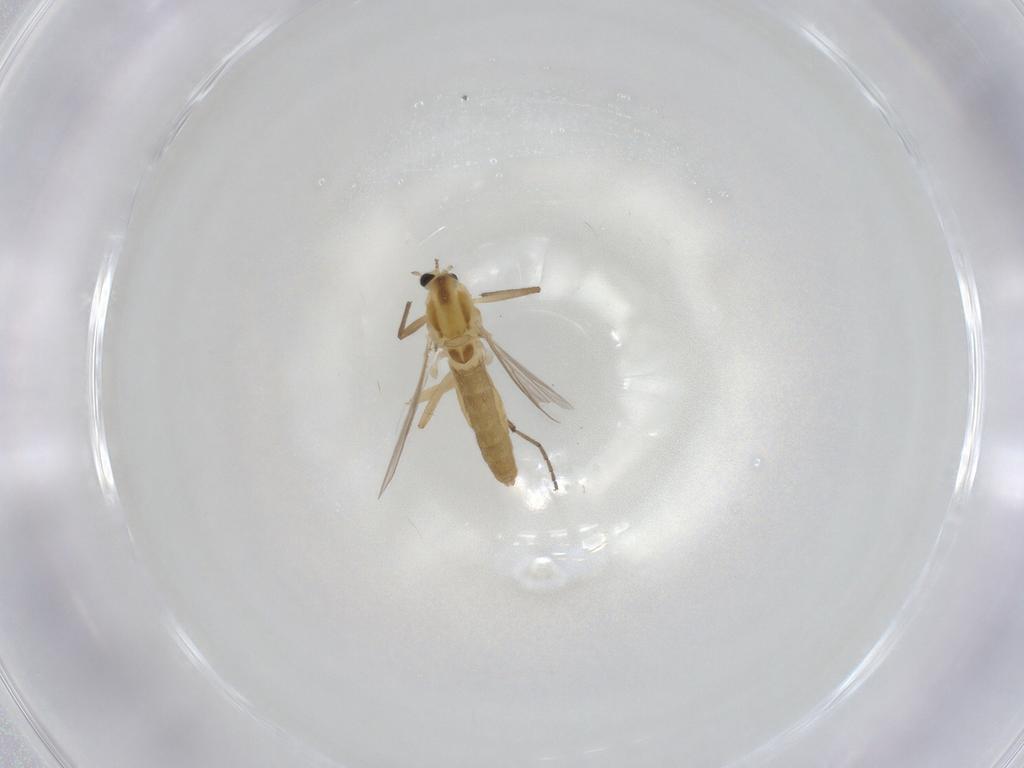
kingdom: Animalia
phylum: Arthropoda
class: Insecta
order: Diptera
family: Chironomidae
